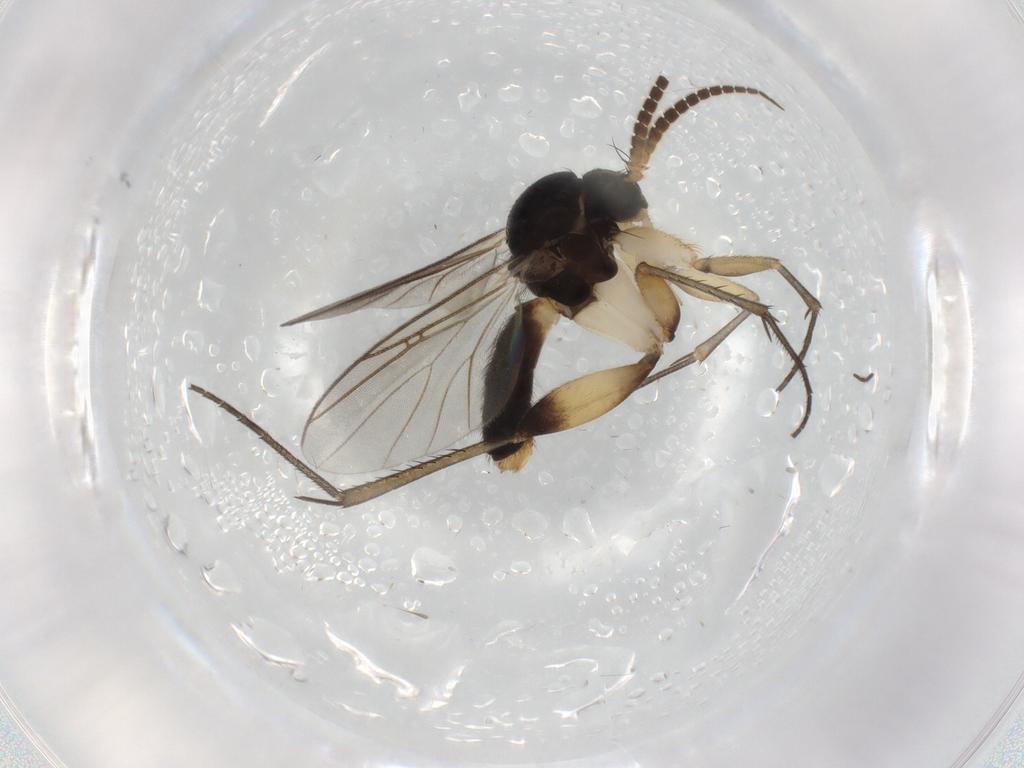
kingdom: Animalia
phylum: Arthropoda
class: Insecta
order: Diptera
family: Mycetophilidae
